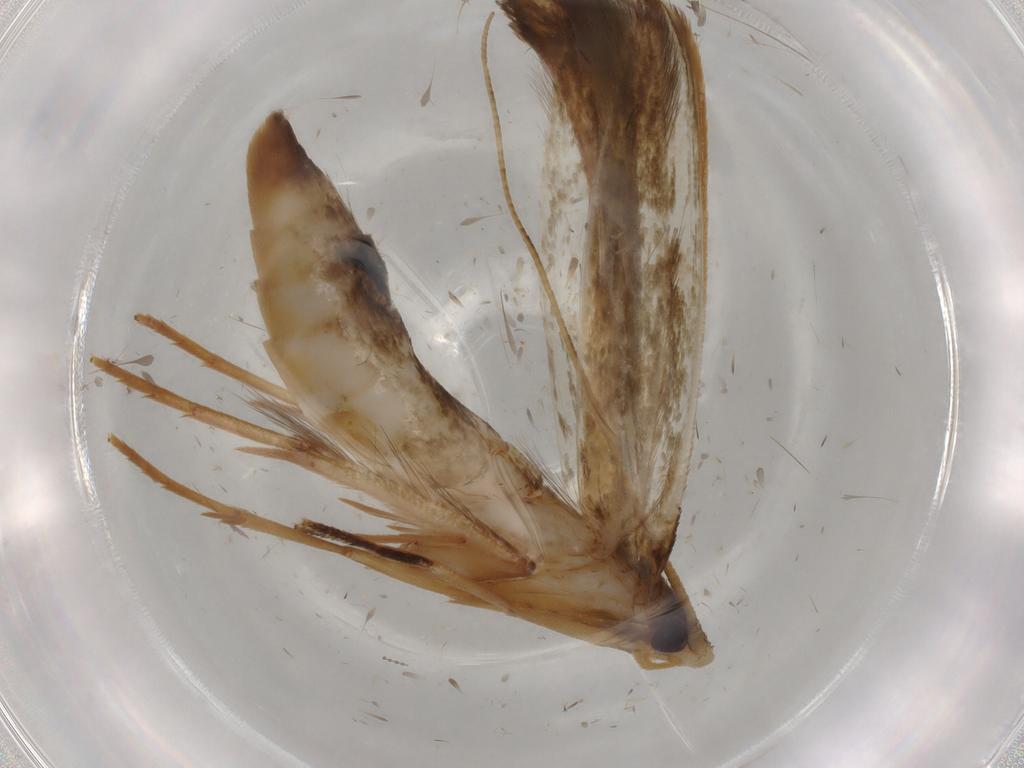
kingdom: Animalia
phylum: Arthropoda
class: Insecta
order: Lepidoptera
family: Tineidae
